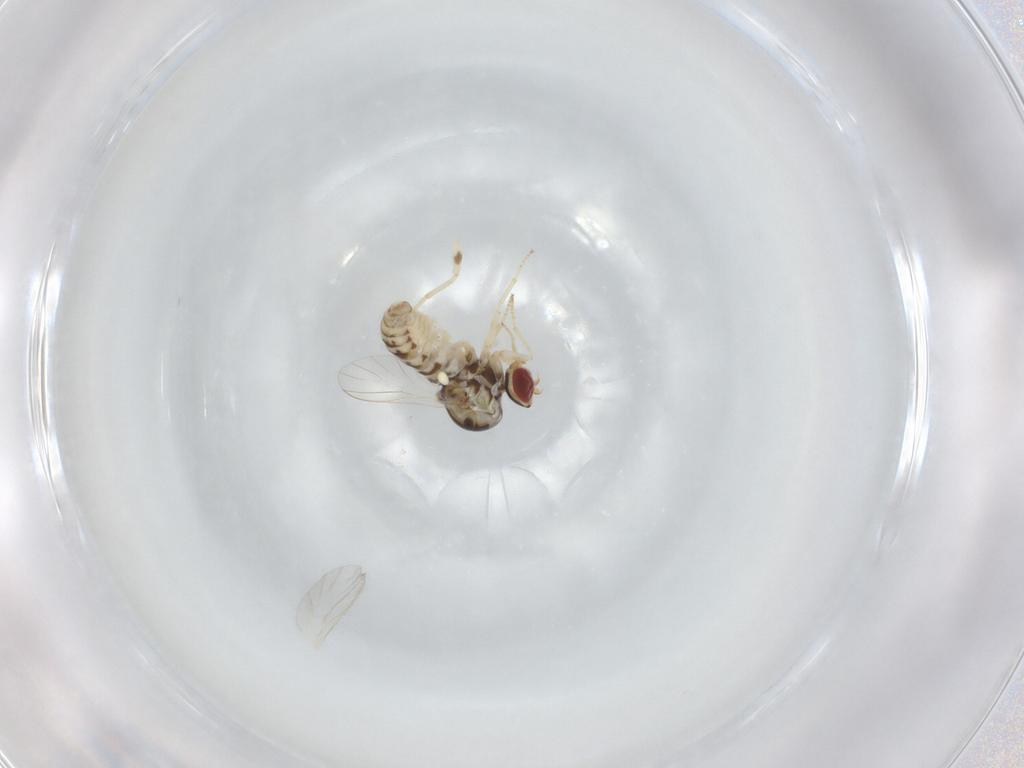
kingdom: Animalia
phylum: Arthropoda
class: Insecta
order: Diptera
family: Bombyliidae
